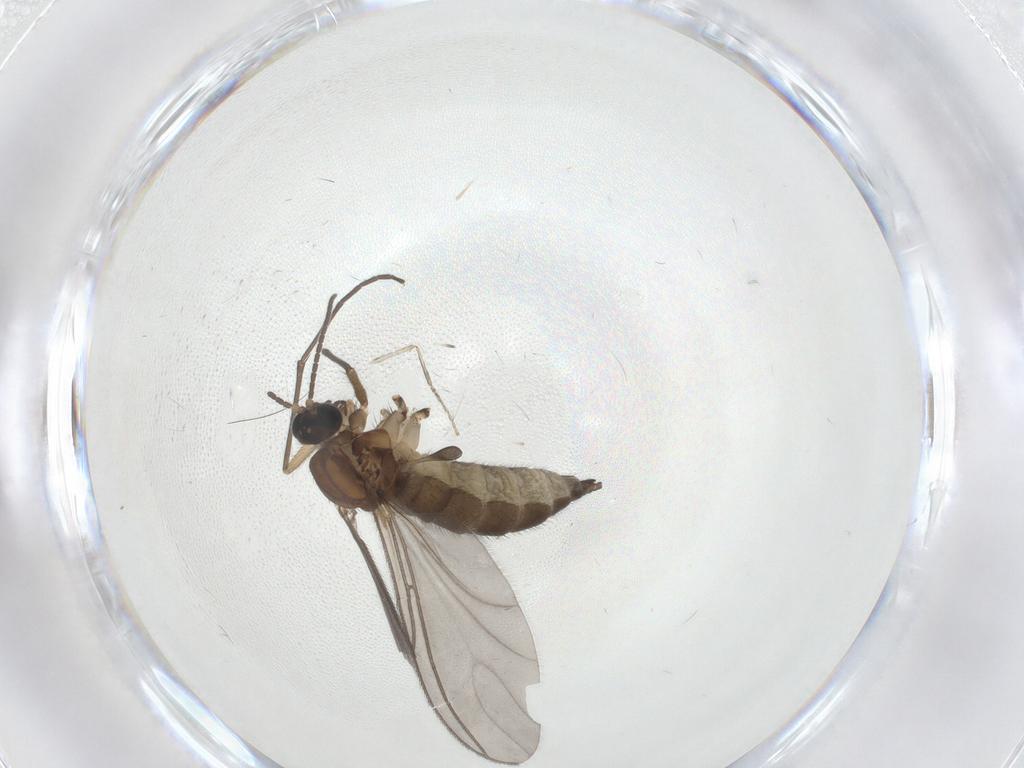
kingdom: Animalia
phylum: Arthropoda
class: Insecta
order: Diptera
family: Sciaridae
